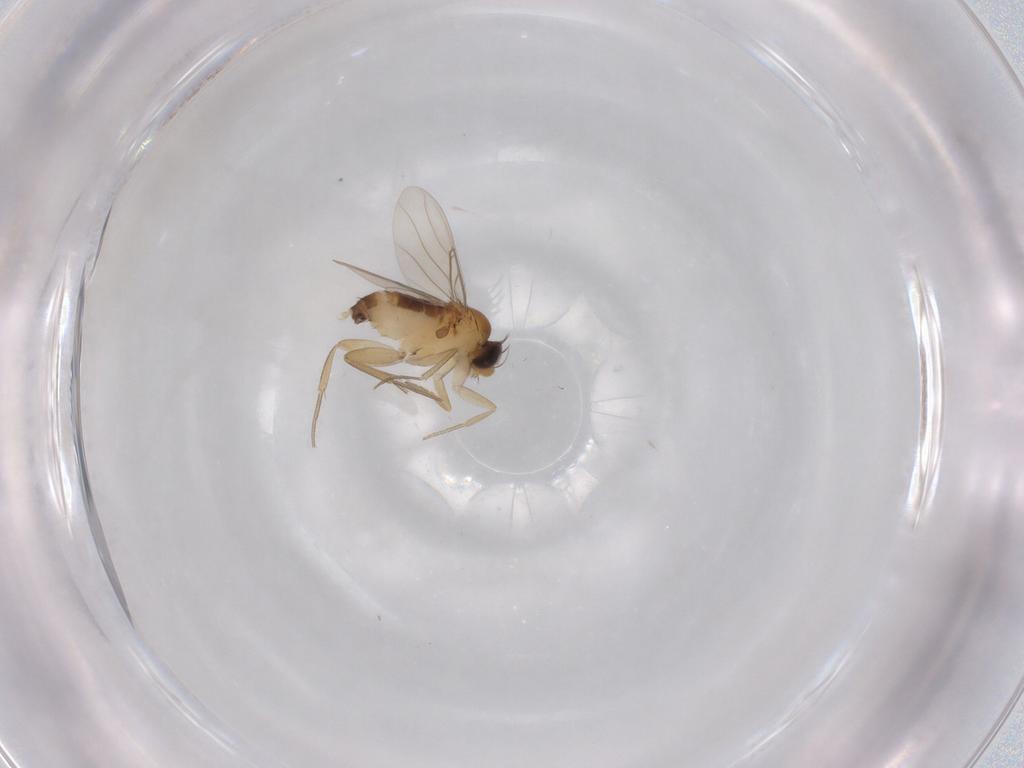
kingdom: Animalia
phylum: Arthropoda
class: Insecta
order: Diptera
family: Phoridae
